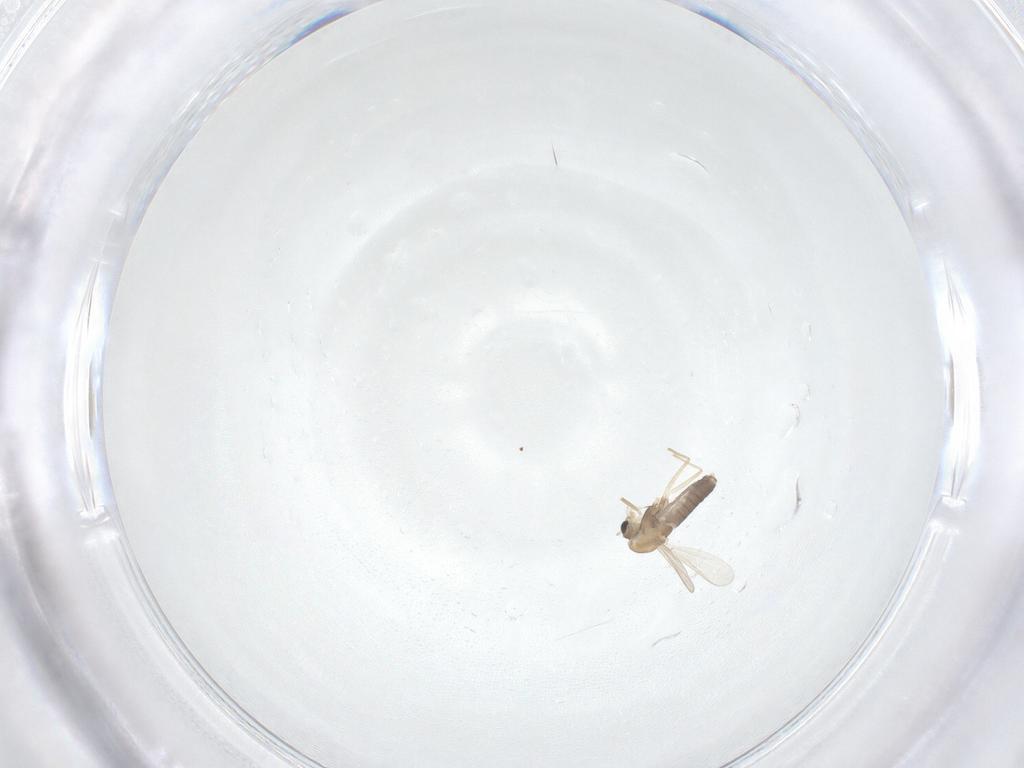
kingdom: Animalia
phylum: Arthropoda
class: Insecta
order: Diptera
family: Chironomidae
